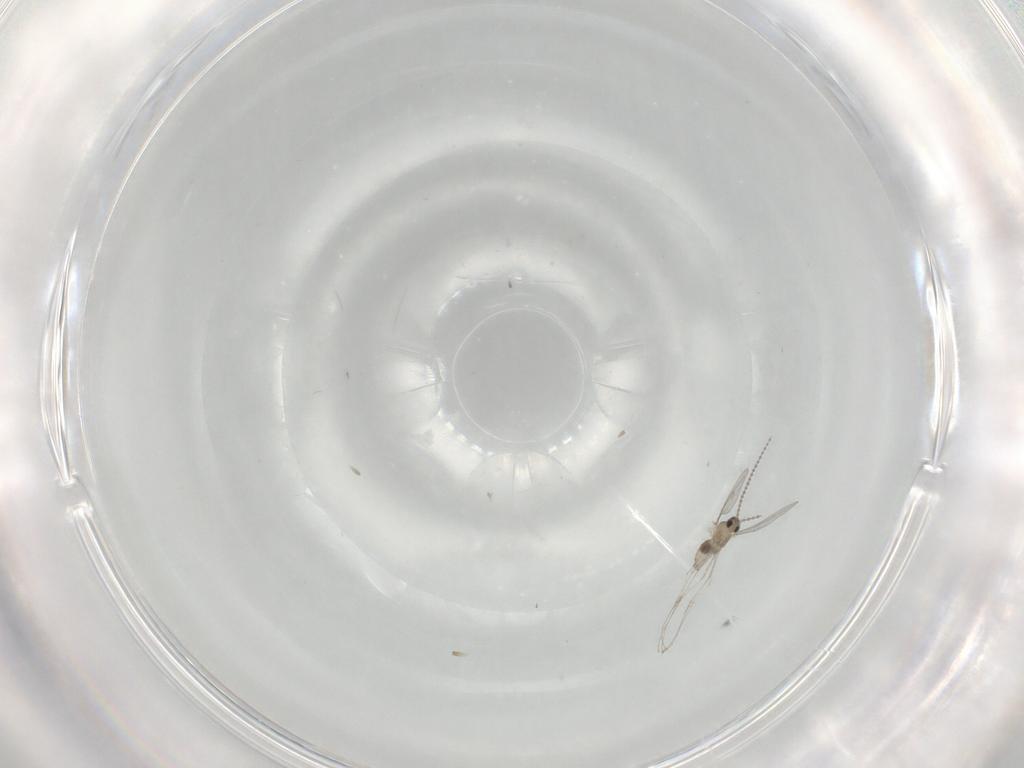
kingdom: Animalia
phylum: Arthropoda
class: Insecta
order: Diptera
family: Cecidomyiidae
